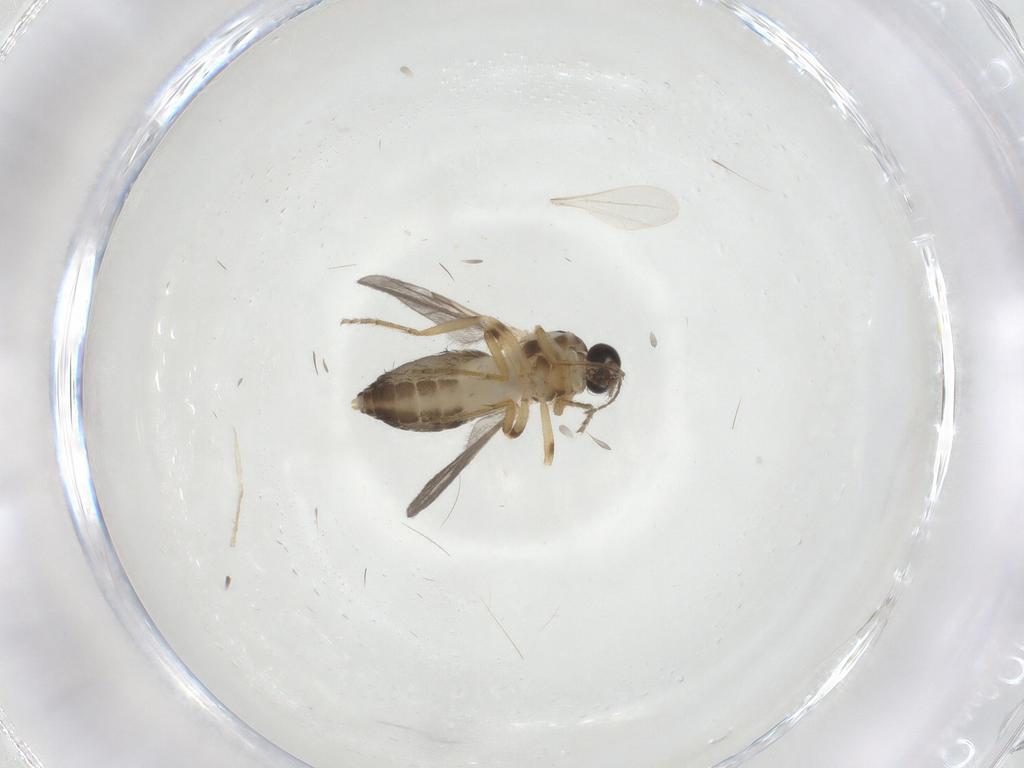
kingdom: Animalia
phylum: Arthropoda
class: Insecta
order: Diptera
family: Ceratopogonidae
